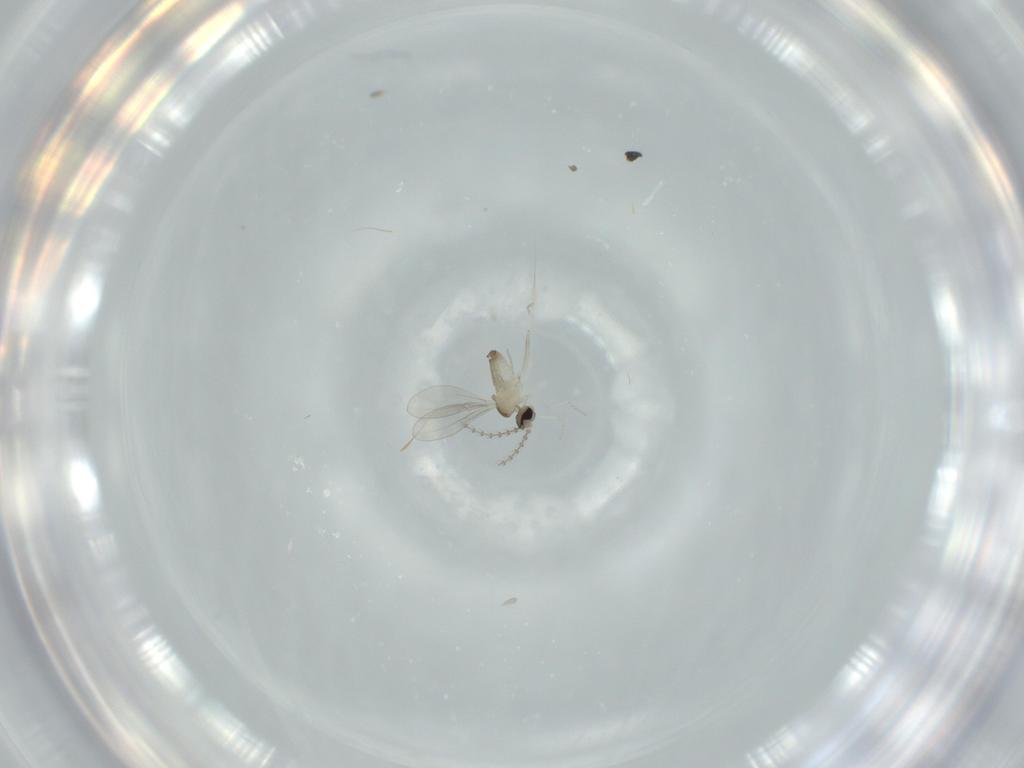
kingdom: Animalia
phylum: Arthropoda
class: Insecta
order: Diptera
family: Cecidomyiidae
